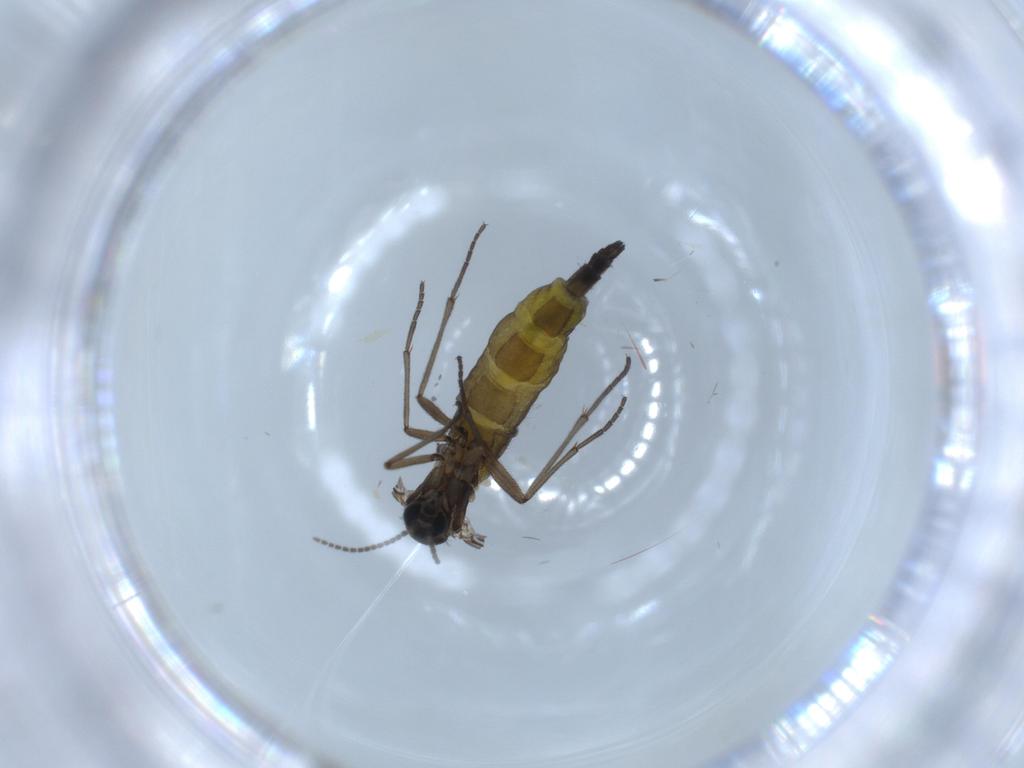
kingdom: Animalia
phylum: Arthropoda
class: Insecta
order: Diptera
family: Sciaridae
